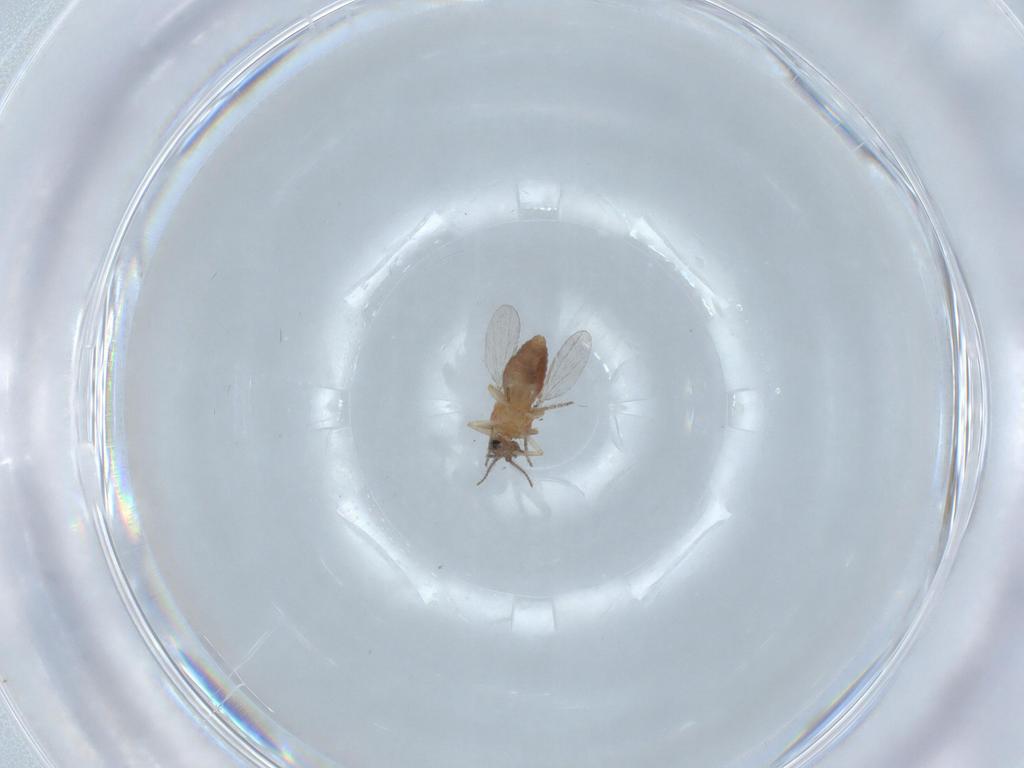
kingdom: Animalia
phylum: Arthropoda
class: Insecta
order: Diptera
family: Ceratopogonidae
